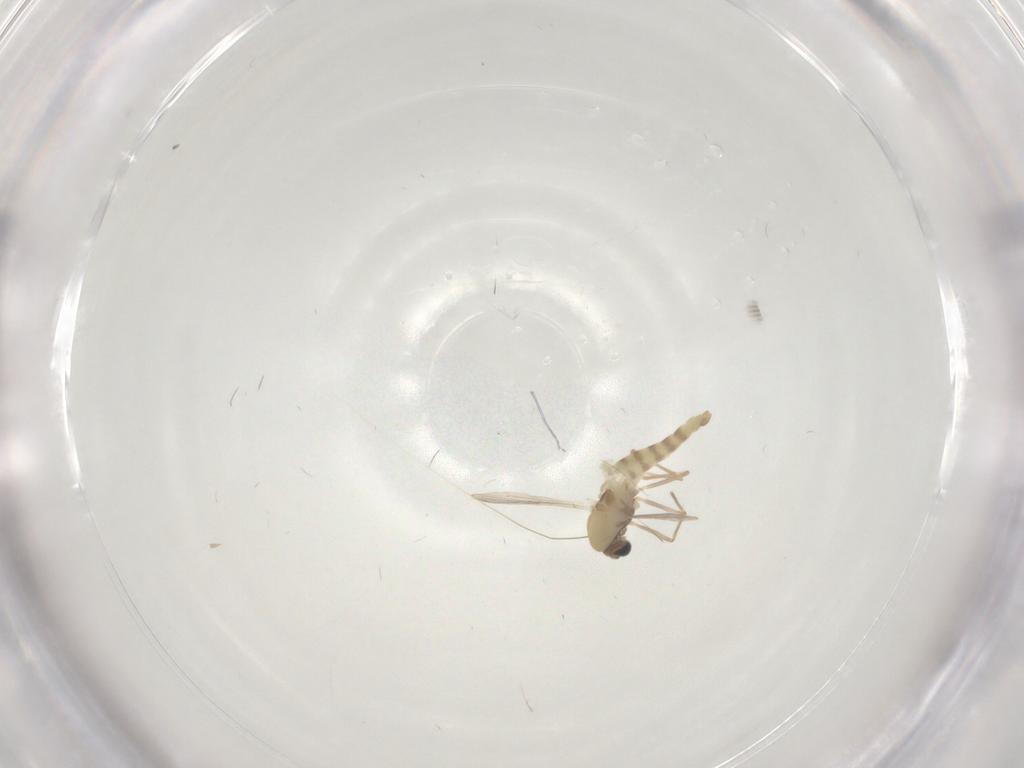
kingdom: Animalia
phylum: Arthropoda
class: Insecta
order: Diptera
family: Chironomidae
